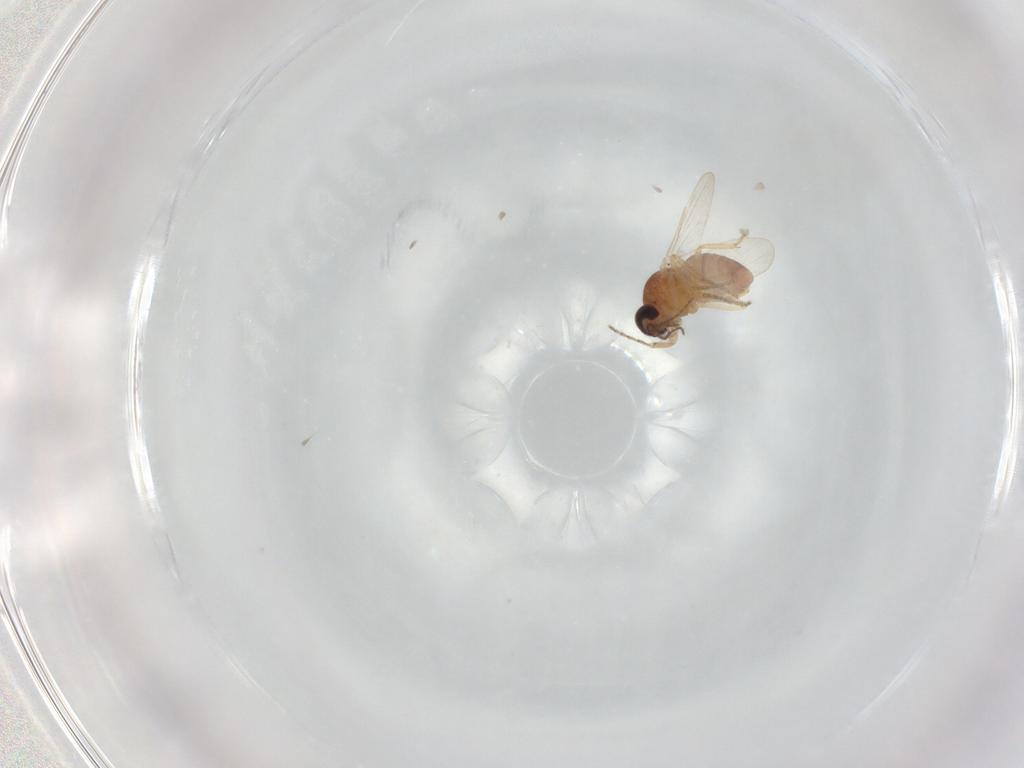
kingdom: Animalia
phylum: Arthropoda
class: Insecta
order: Diptera
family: Ceratopogonidae
